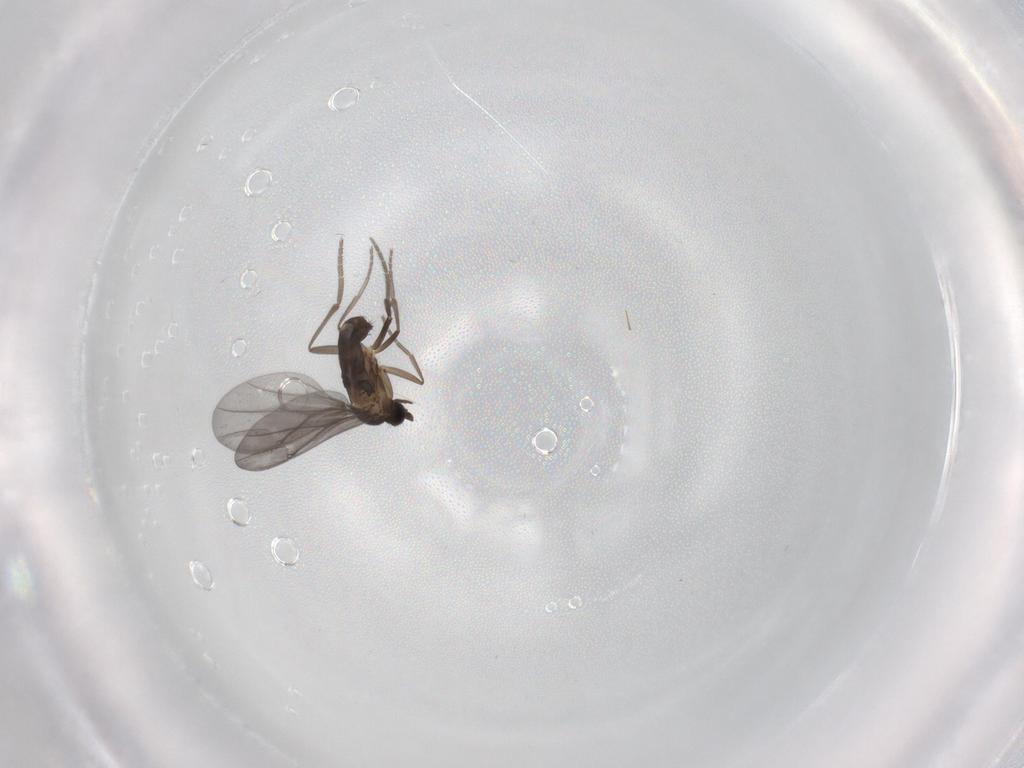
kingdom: Animalia
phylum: Arthropoda
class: Insecta
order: Diptera
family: Phoridae
